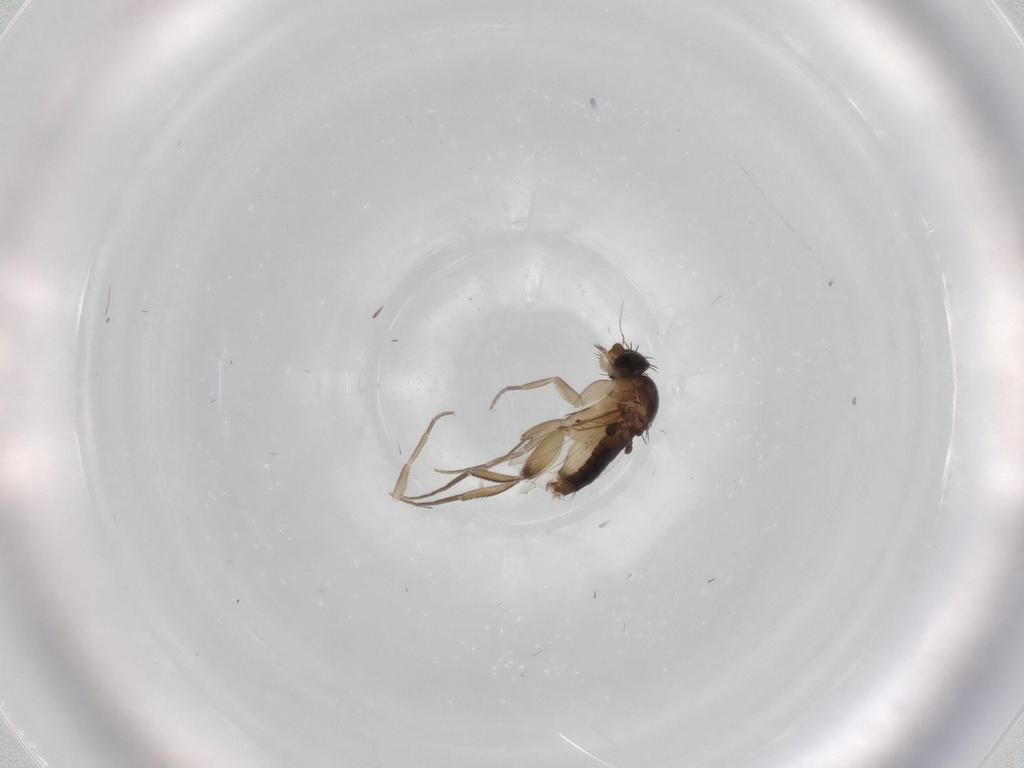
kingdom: Animalia
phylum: Arthropoda
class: Insecta
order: Diptera
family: Phoridae
